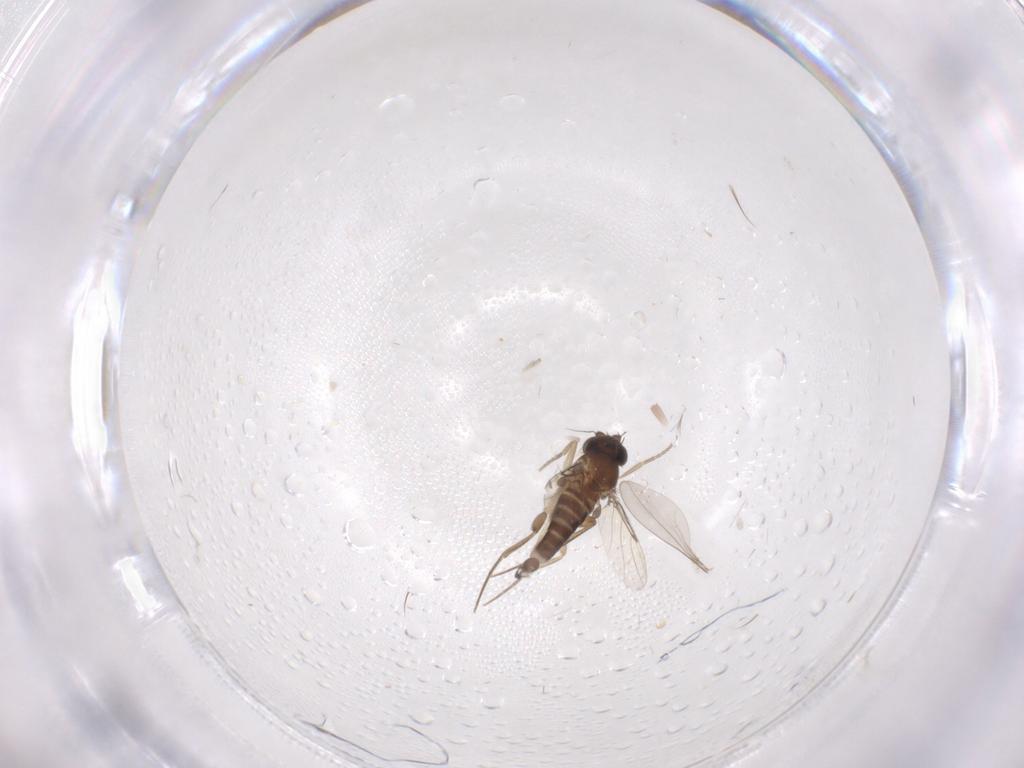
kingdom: Animalia
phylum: Arthropoda
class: Insecta
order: Diptera
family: Phoridae
